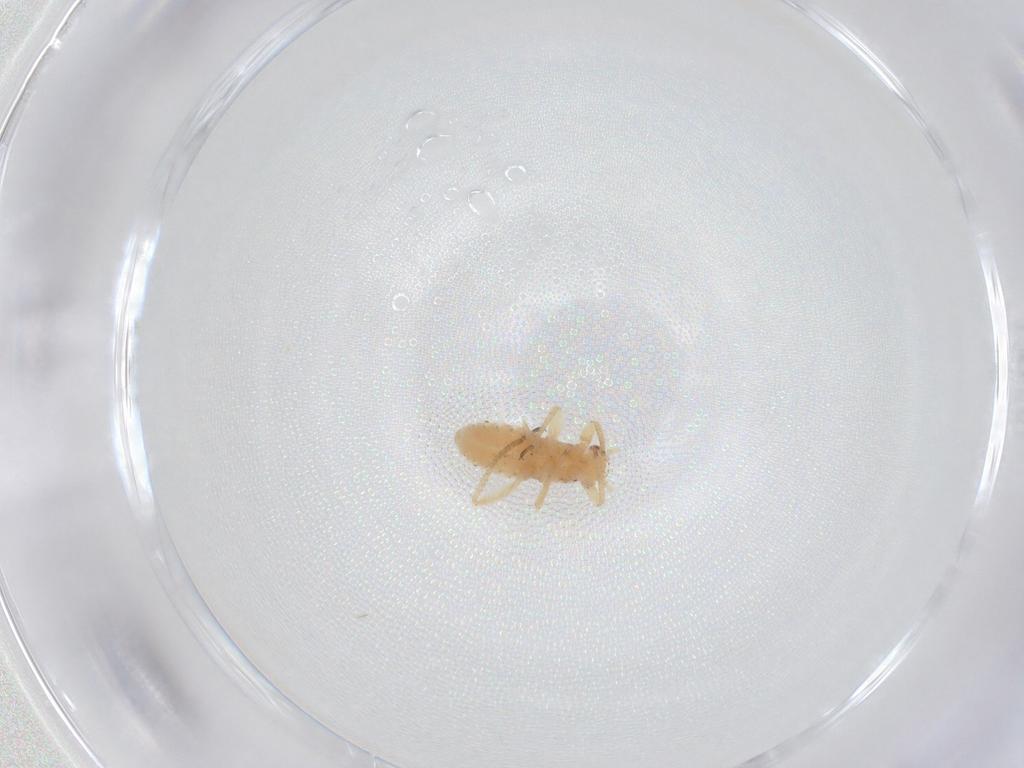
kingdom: Animalia
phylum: Arthropoda
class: Insecta
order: Hemiptera
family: Aphididae
